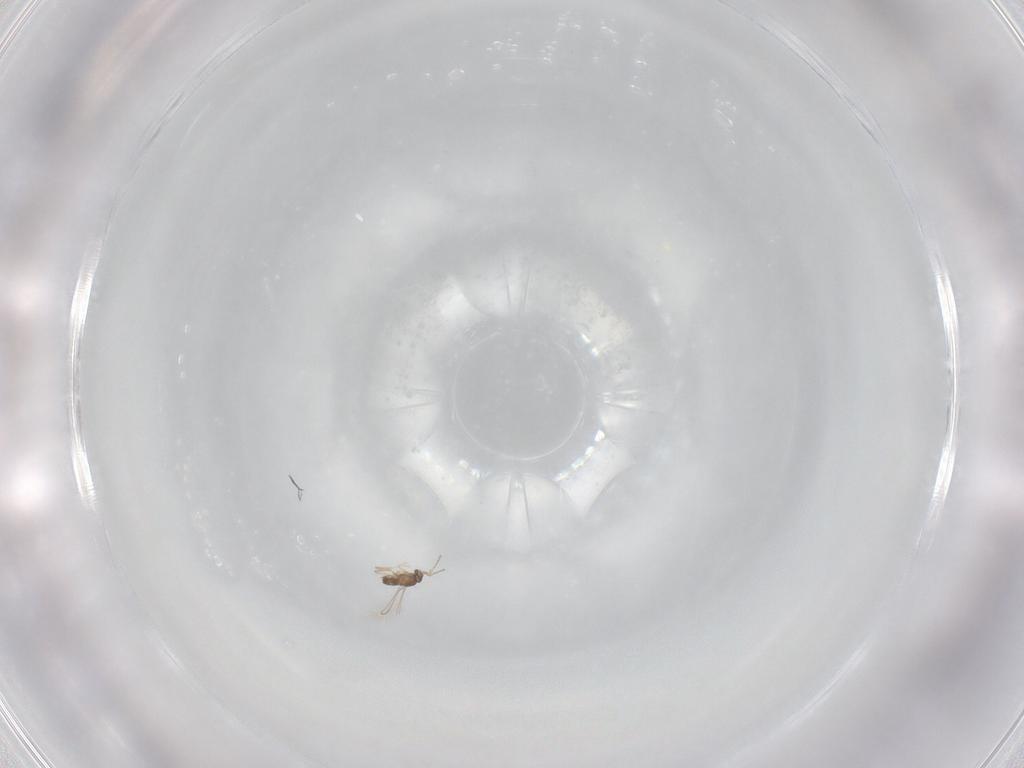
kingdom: Animalia
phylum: Arthropoda
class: Insecta
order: Hymenoptera
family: Mymaridae
